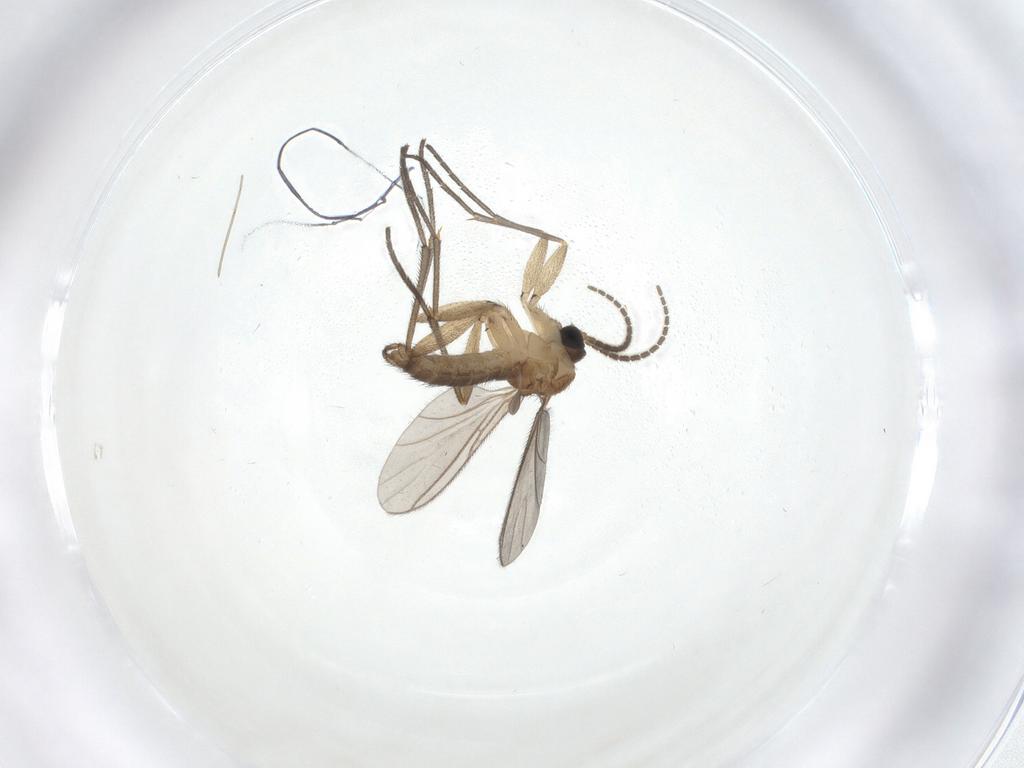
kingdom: Animalia
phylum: Arthropoda
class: Insecta
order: Diptera
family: Sciaridae
